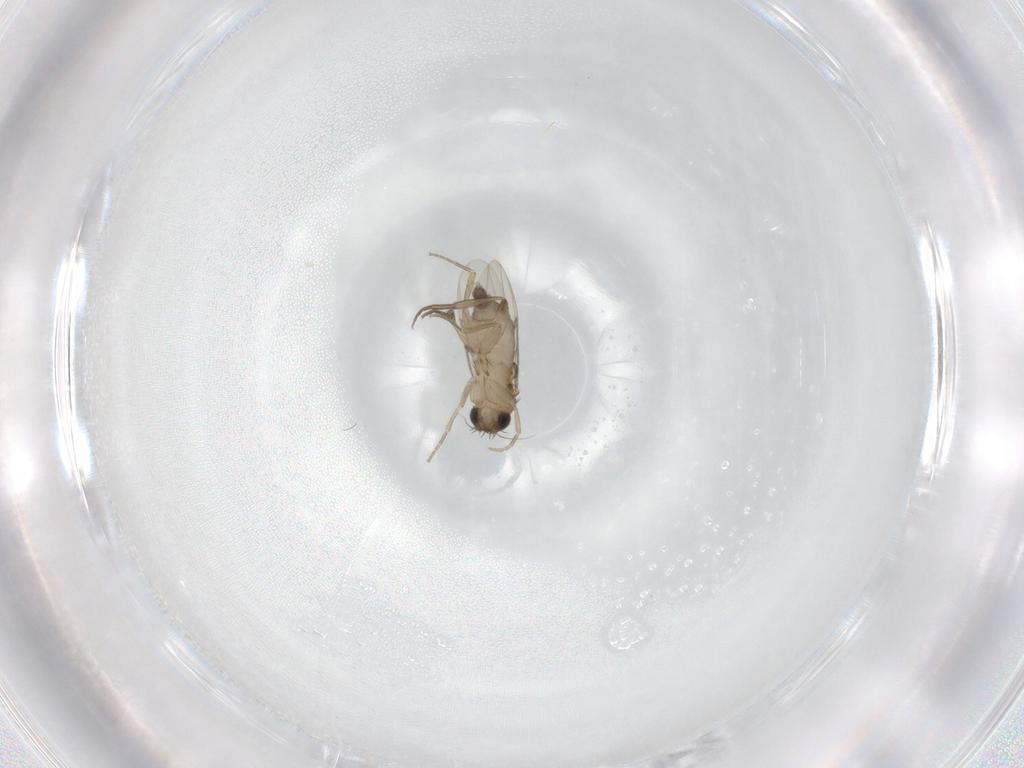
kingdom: Animalia
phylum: Arthropoda
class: Insecta
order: Diptera
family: Phoridae
